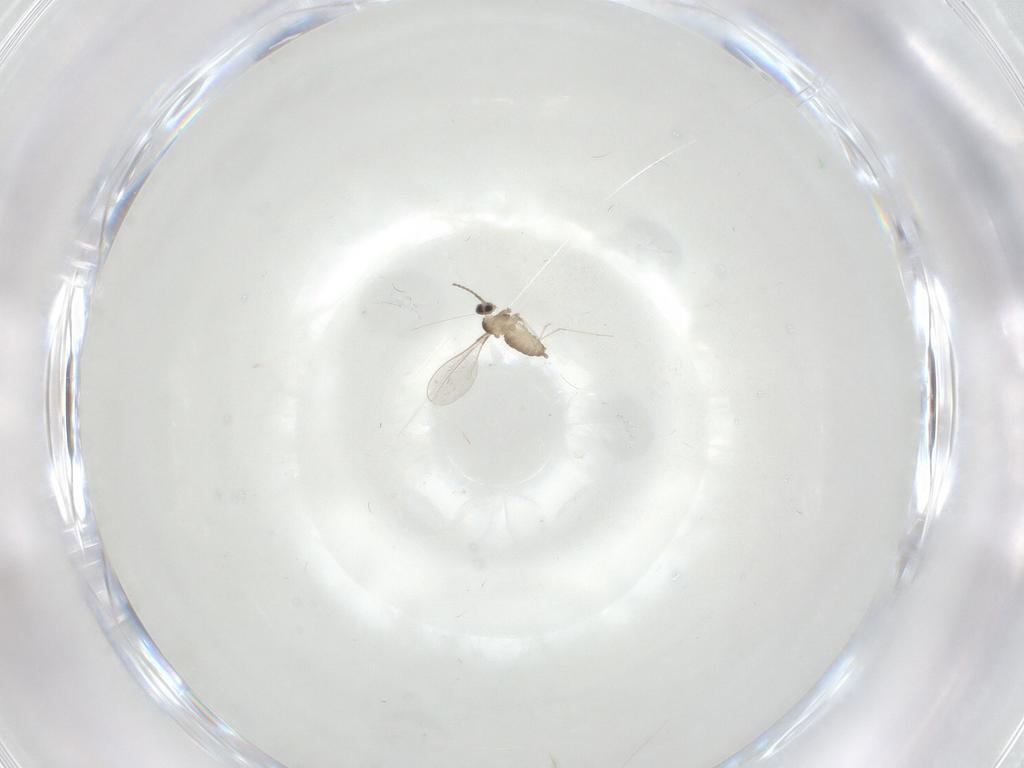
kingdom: Animalia
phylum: Arthropoda
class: Insecta
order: Diptera
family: Cecidomyiidae
